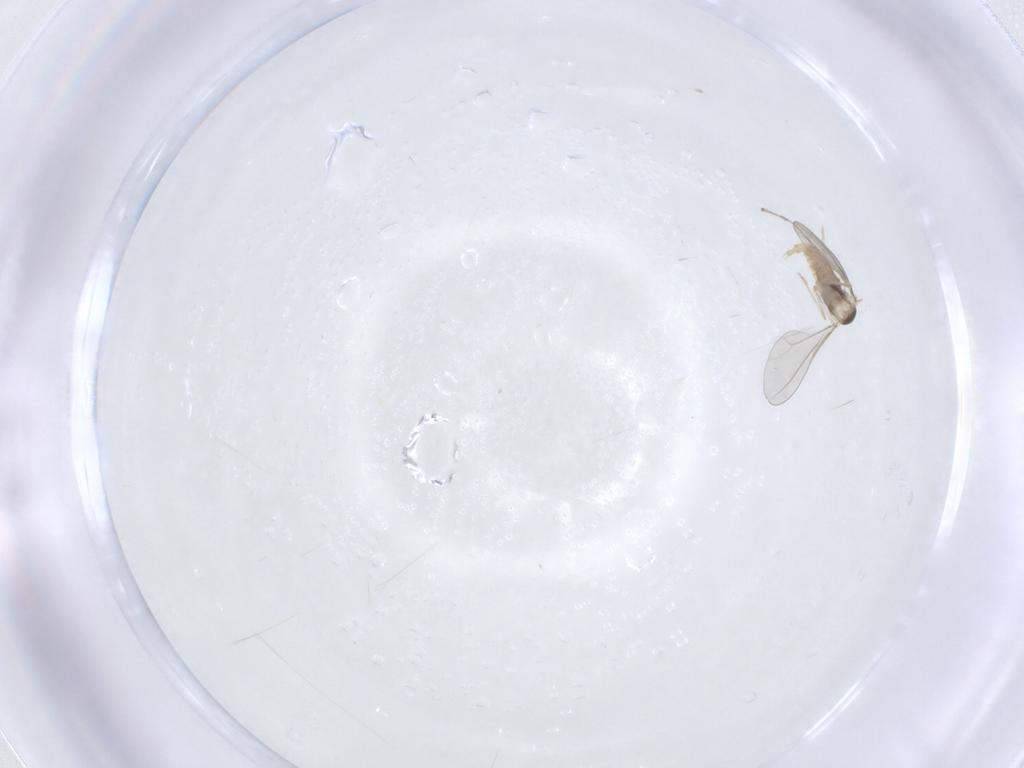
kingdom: Animalia
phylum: Arthropoda
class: Insecta
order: Diptera
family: Cecidomyiidae
